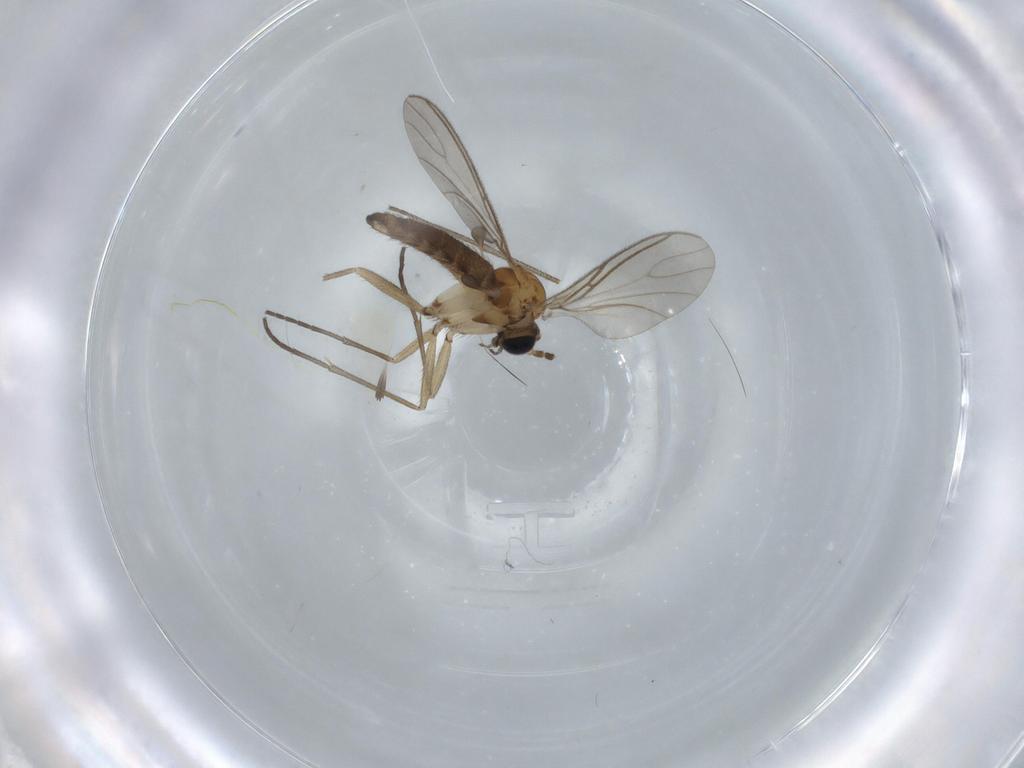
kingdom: Animalia
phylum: Arthropoda
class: Insecta
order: Diptera
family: Sciaridae
